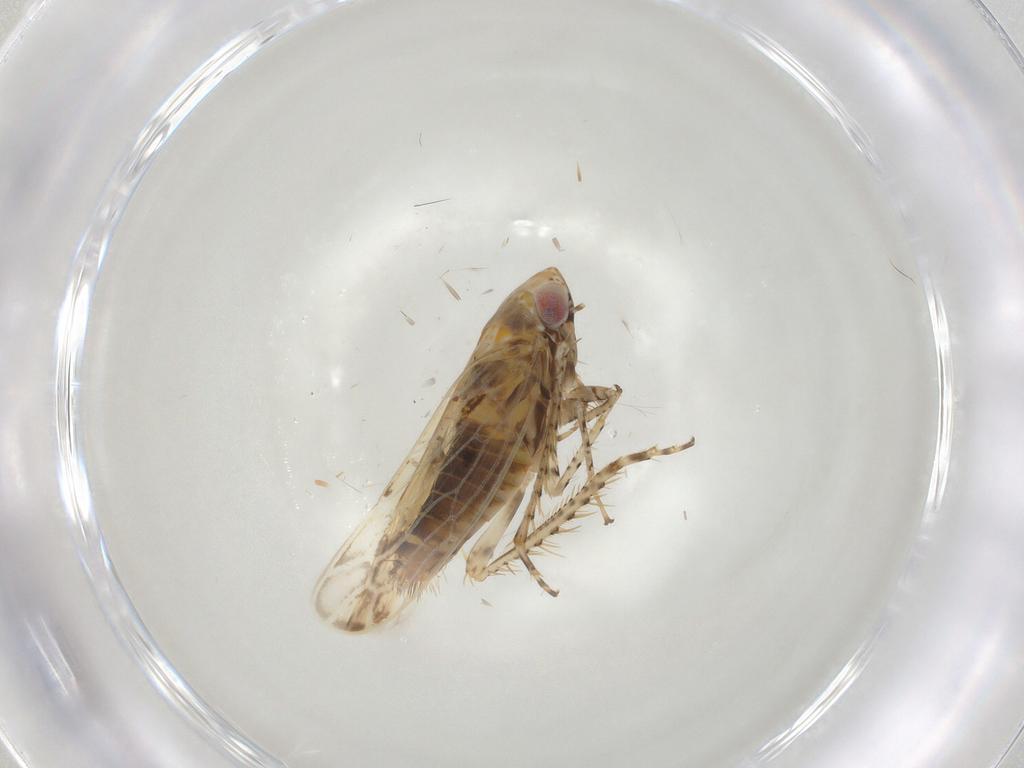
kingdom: Animalia
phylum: Arthropoda
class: Insecta
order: Hemiptera
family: Cicadellidae
